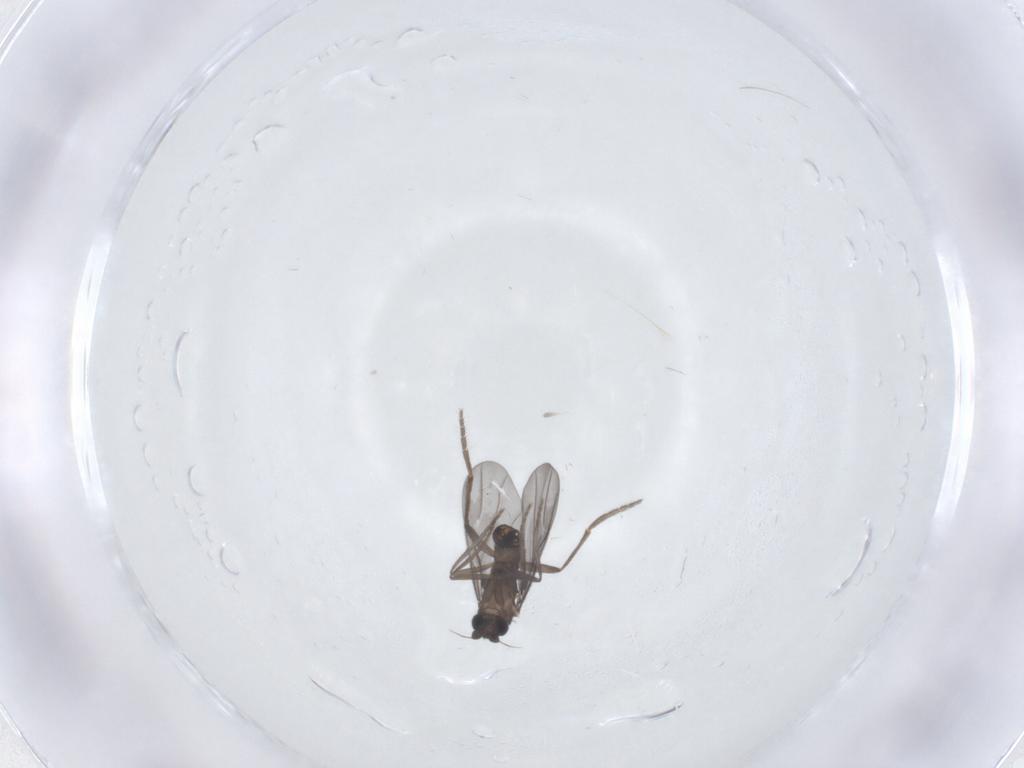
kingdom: Animalia
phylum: Arthropoda
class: Insecta
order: Diptera
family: Phoridae
